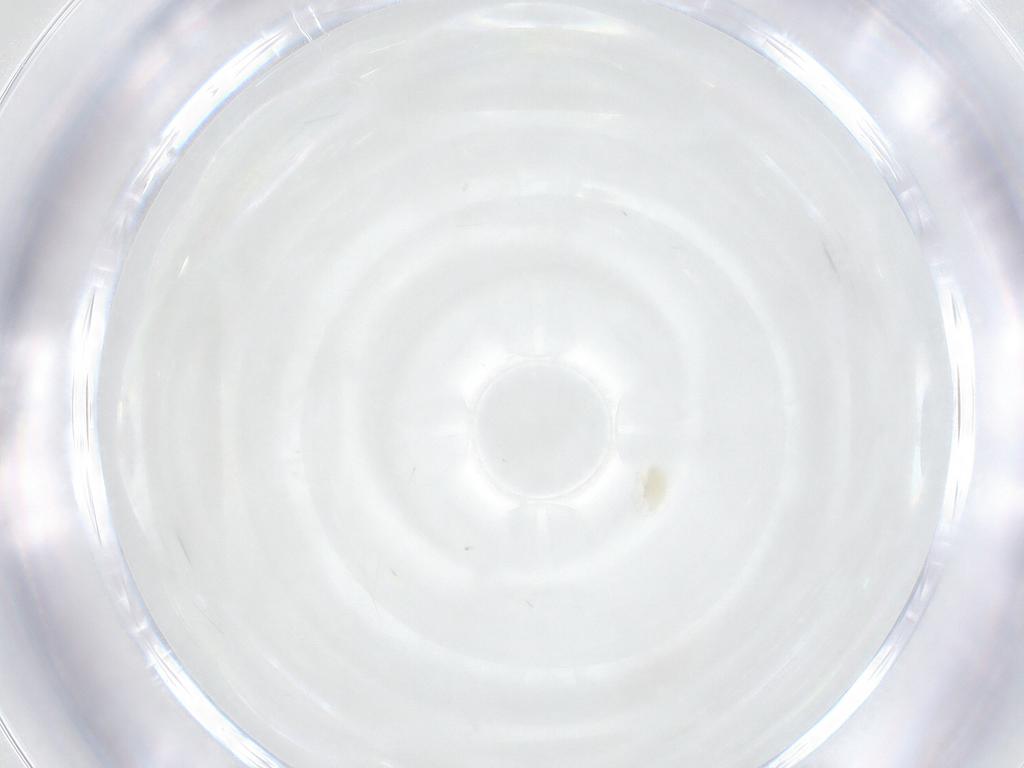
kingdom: Animalia
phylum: Arthropoda
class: Arachnida
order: Trombidiformes
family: Tetranychidae
